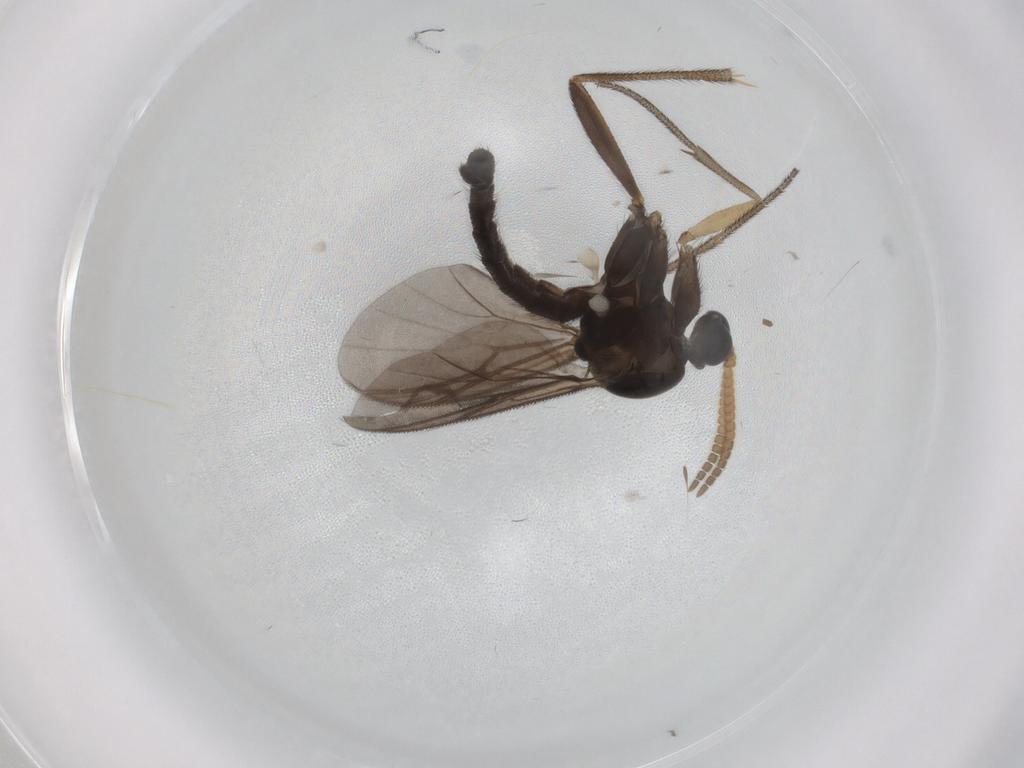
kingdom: Animalia
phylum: Arthropoda
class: Insecta
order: Diptera
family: Mycetophilidae
